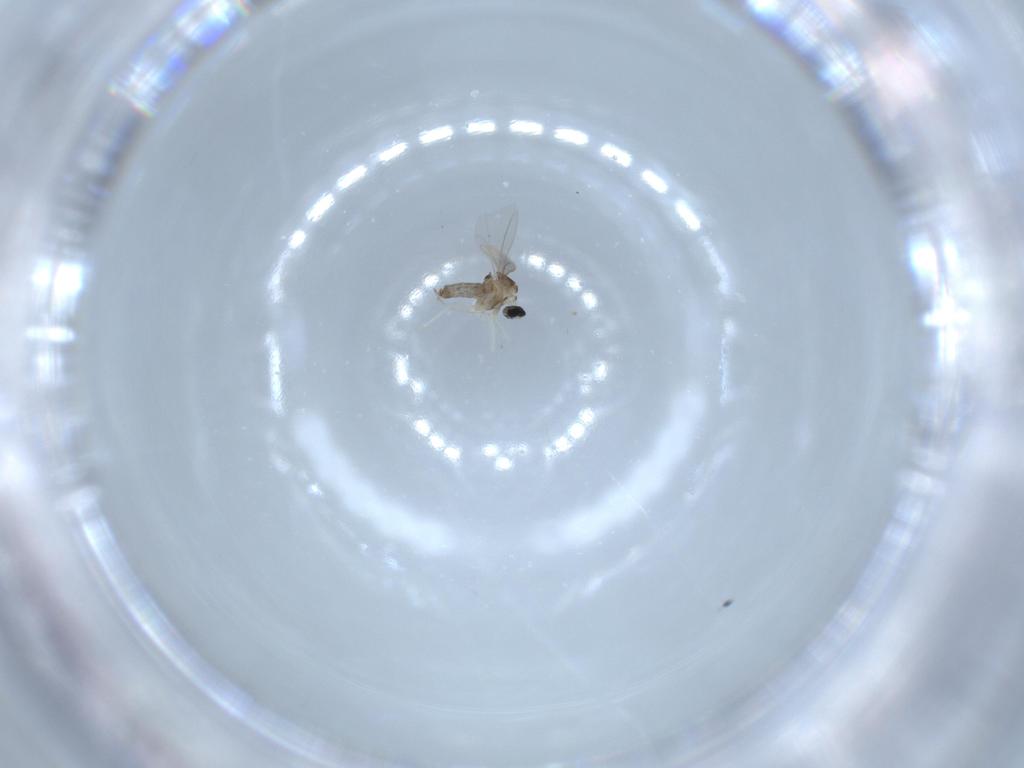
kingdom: Animalia
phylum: Arthropoda
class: Insecta
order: Diptera
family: Cecidomyiidae
